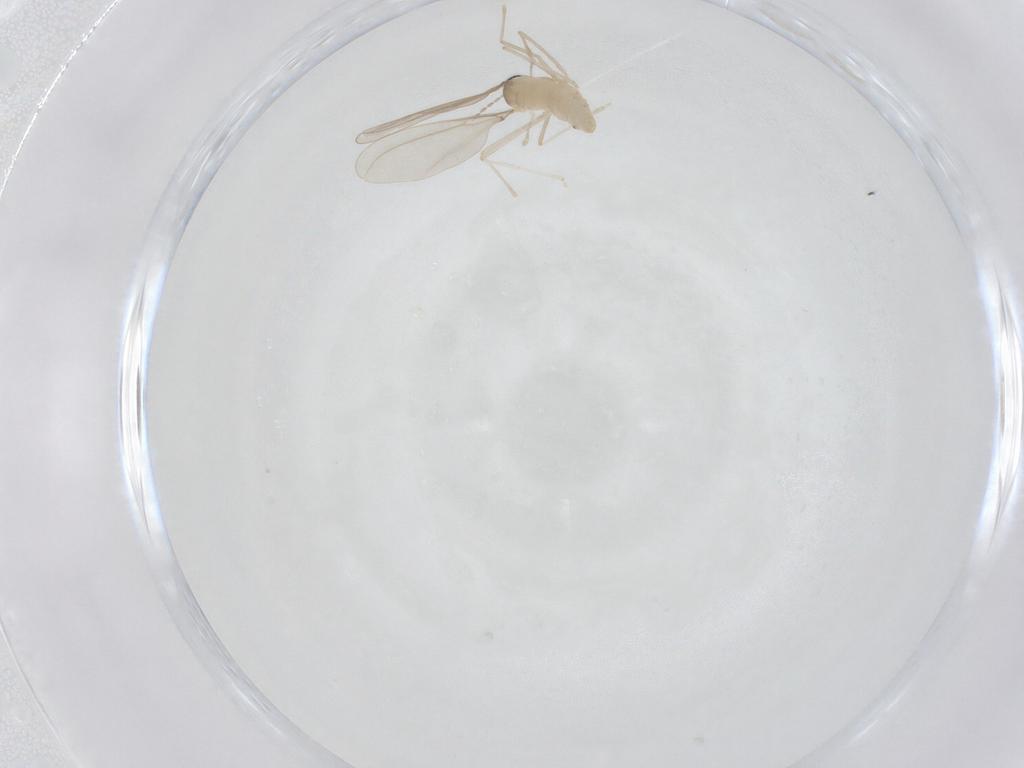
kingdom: Animalia
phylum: Arthropoda
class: Insecta
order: Diptera
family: Cecidomyiidae
